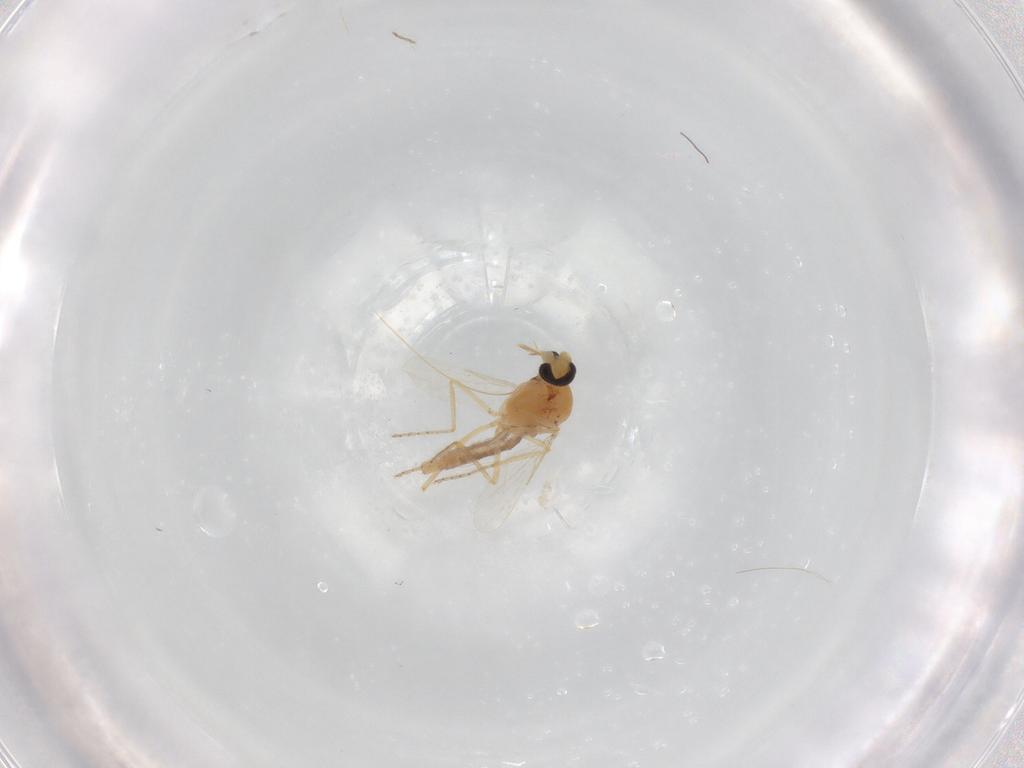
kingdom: Animalia
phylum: Arthropoda
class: Insecta
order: Diptera
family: Ceratopogonidae
